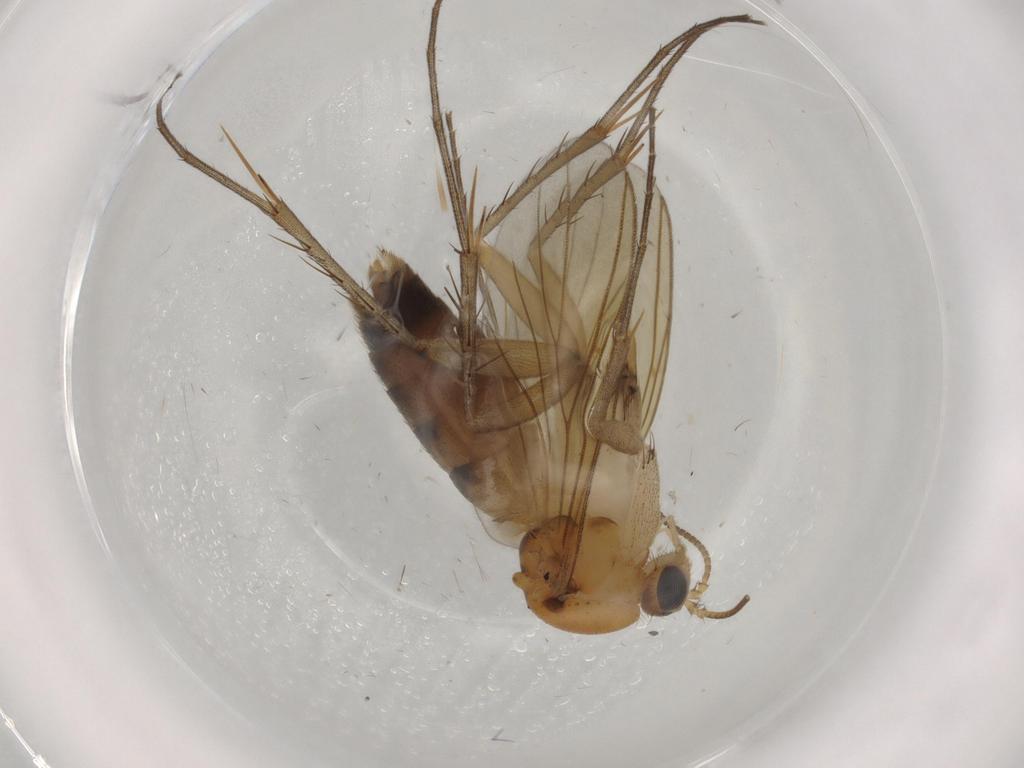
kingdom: Animalia
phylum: Arthropoda
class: Insecta
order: Diptera
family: Mycetophilidae
